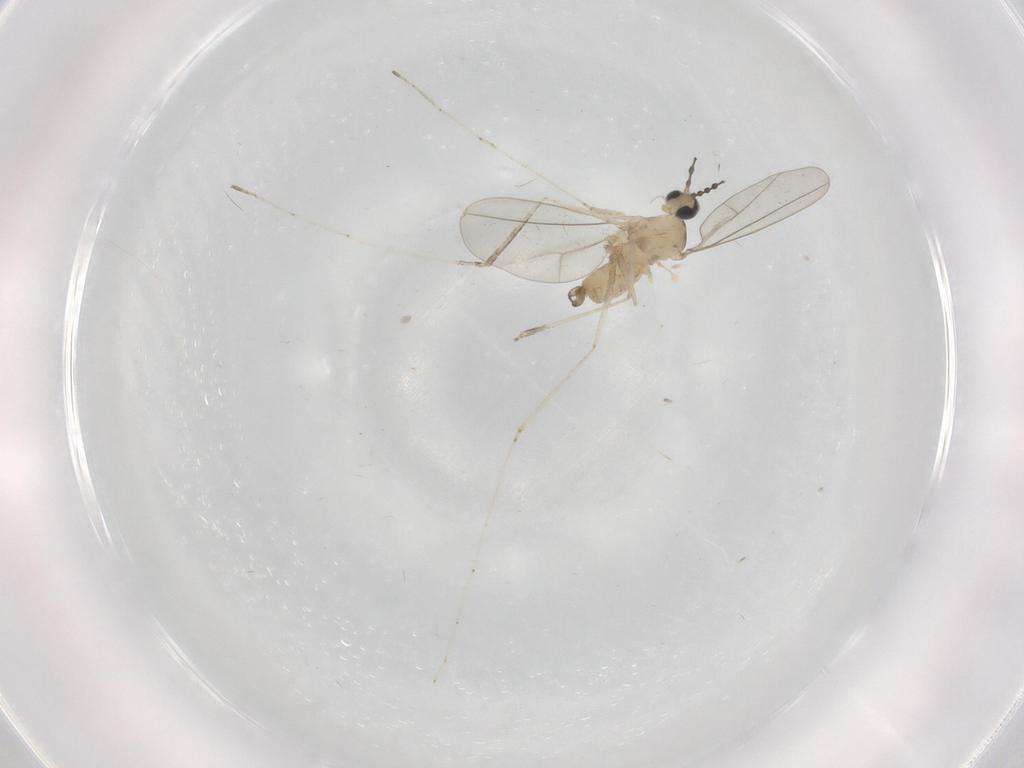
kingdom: Animalia
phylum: Arthropoda
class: Insecta
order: Diptera
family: Cecidomyiidae
